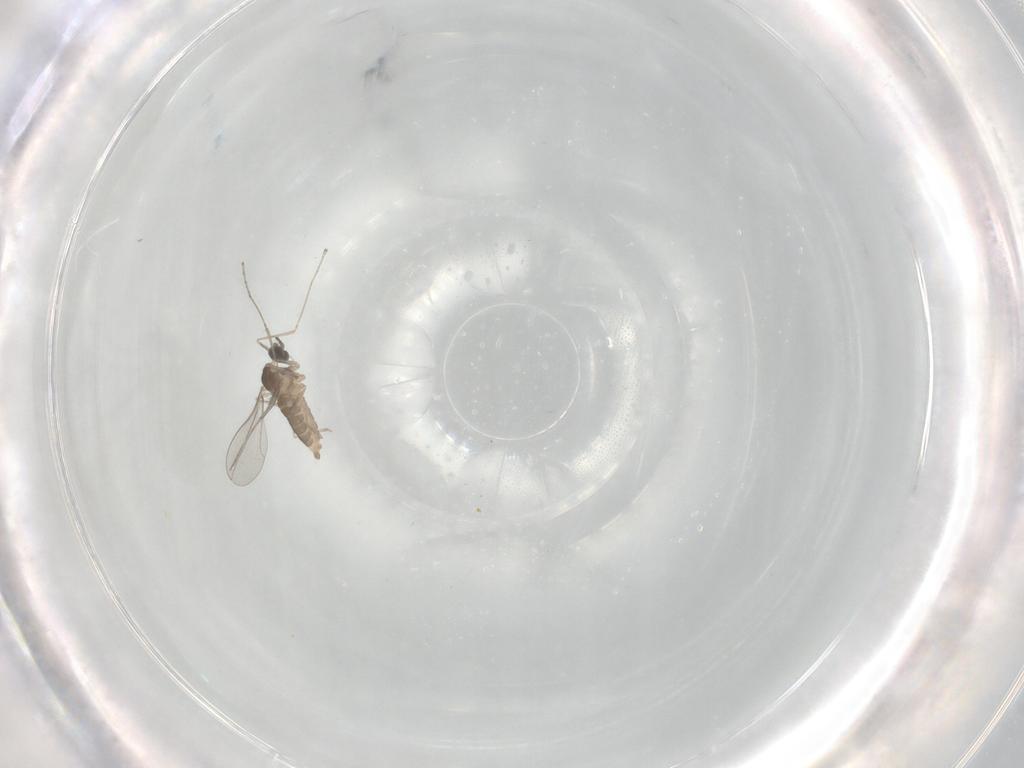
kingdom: Animalia
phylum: Arthropoda
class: Insecta
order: Diptera
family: Cecidomyiidae
